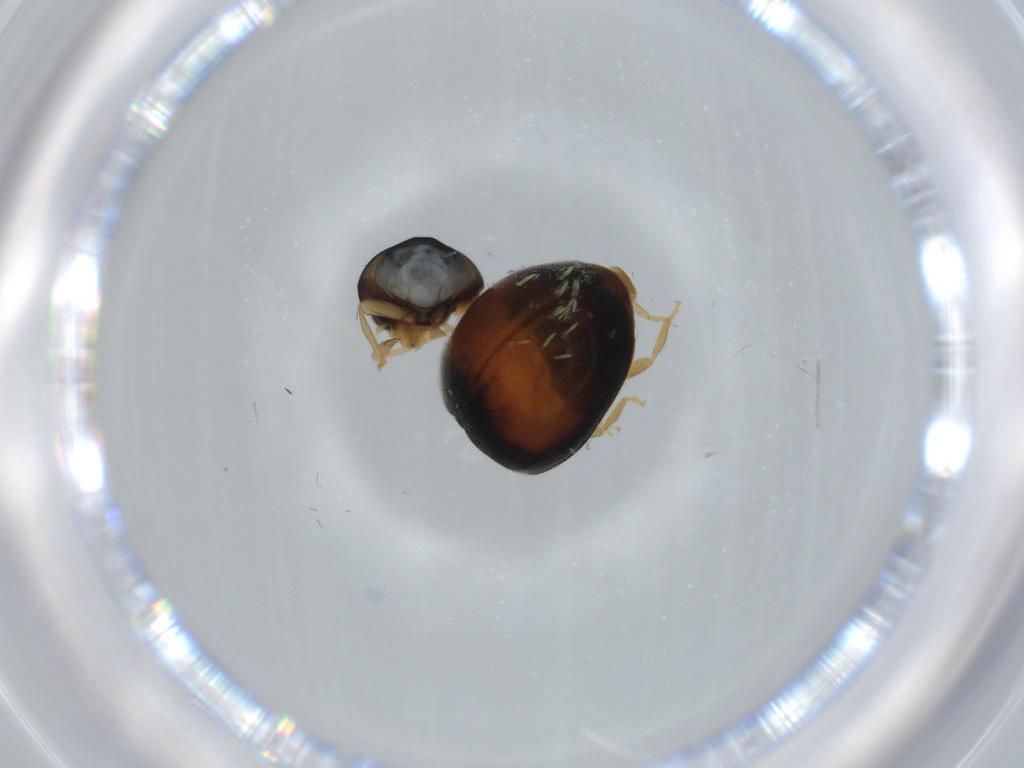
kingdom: Animalia
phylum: Arthropoda
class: Insecta
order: Coleoptera
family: Coccinellidae
